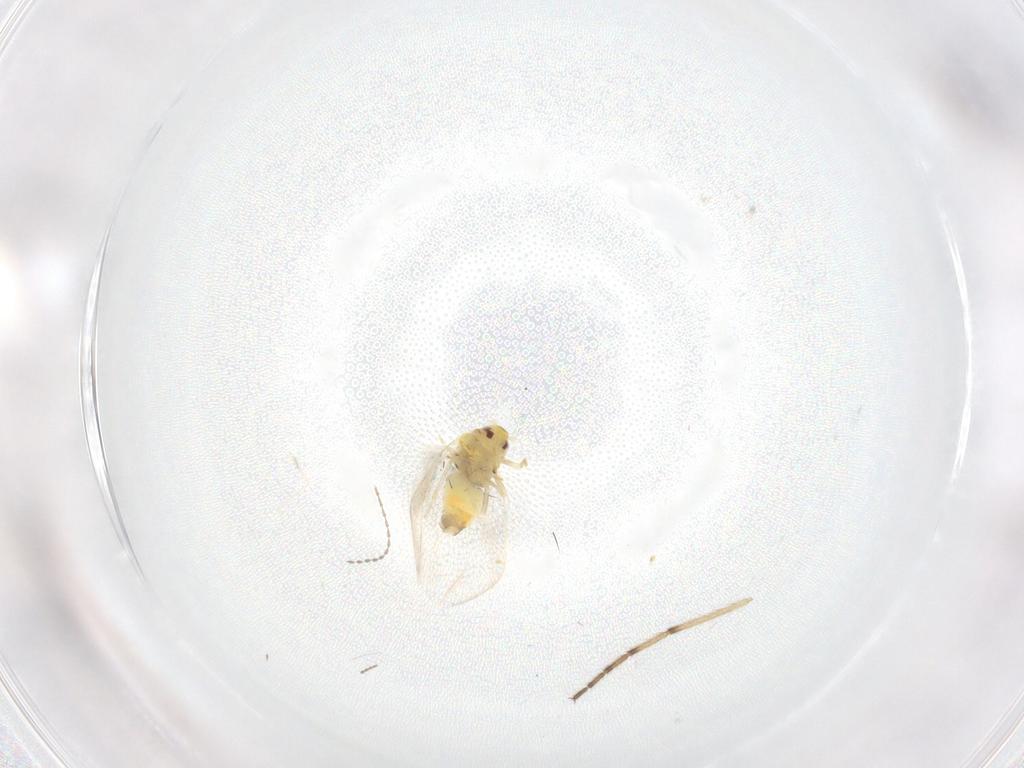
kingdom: Animalia
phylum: Arthropoda
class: Insecta
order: Hemiptera
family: Aleyrodidae
